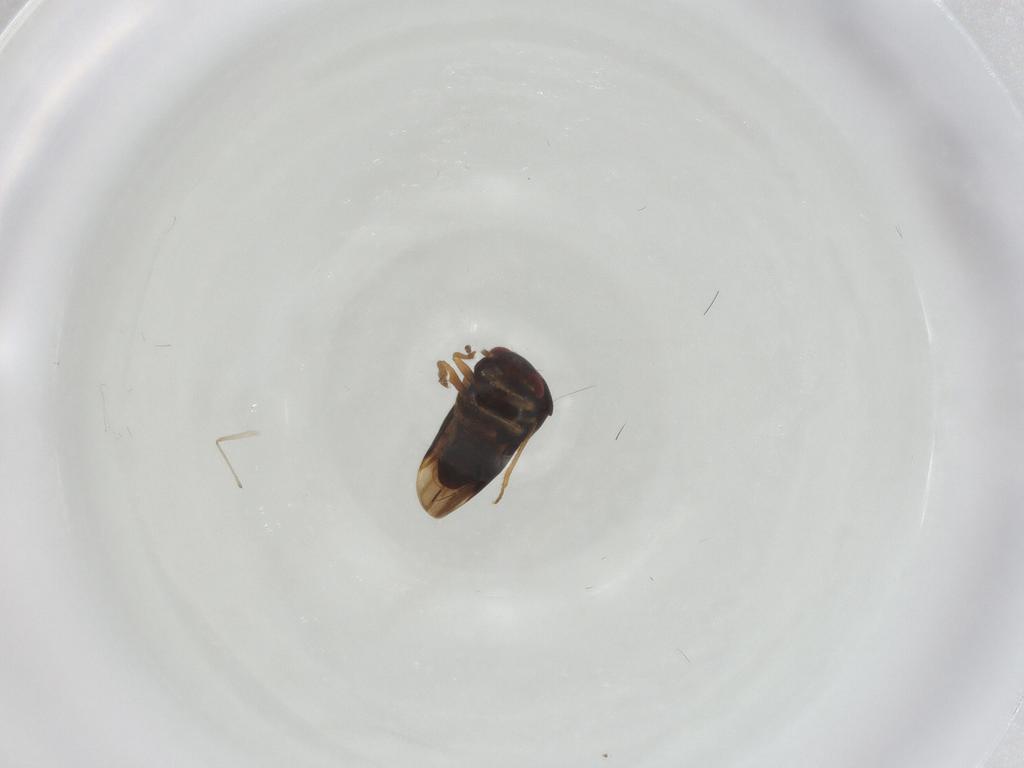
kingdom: Animalia
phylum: Arthropoda
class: Insecta
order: Hemiptera
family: Schizopteridae
